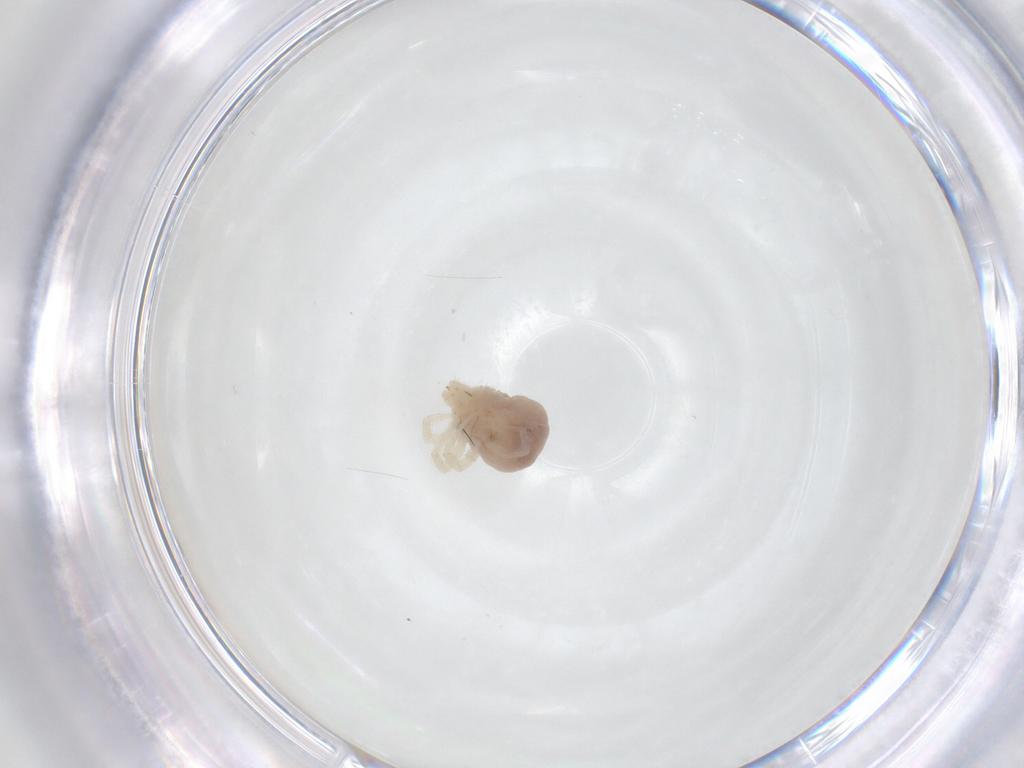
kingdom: Animalia
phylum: Arthropoda
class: Arachnida
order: Trombidiformes
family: Anystidae
